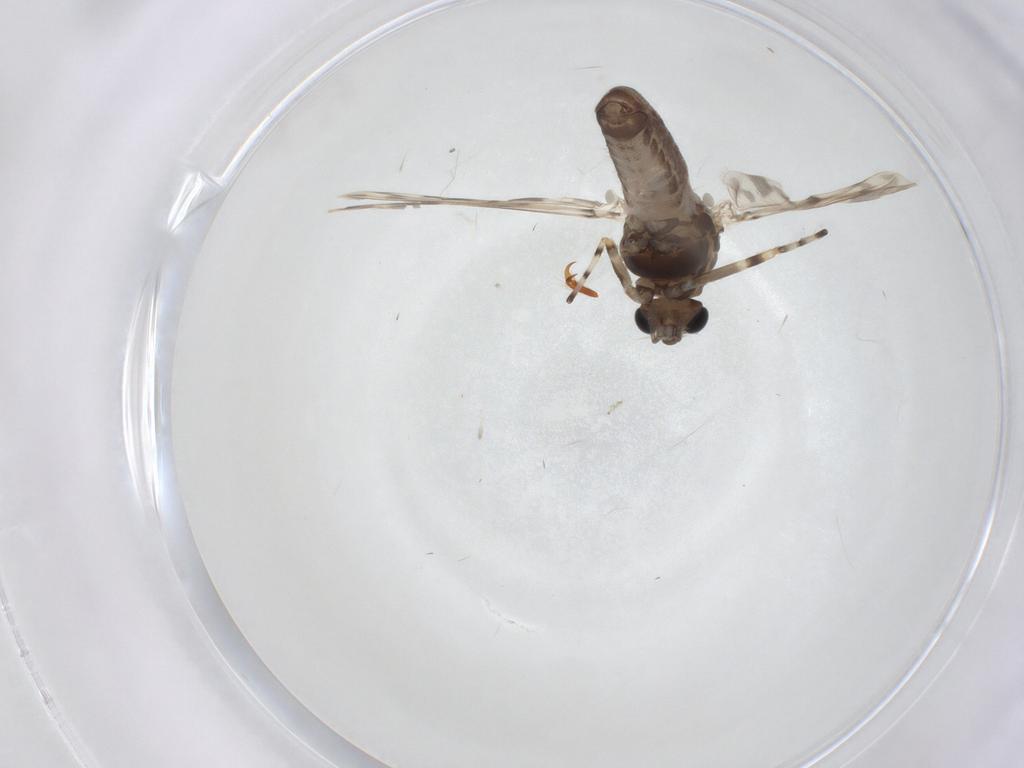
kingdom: Animalia
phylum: Arthropoda
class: Insecta
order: Diptera
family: Chironomidae
